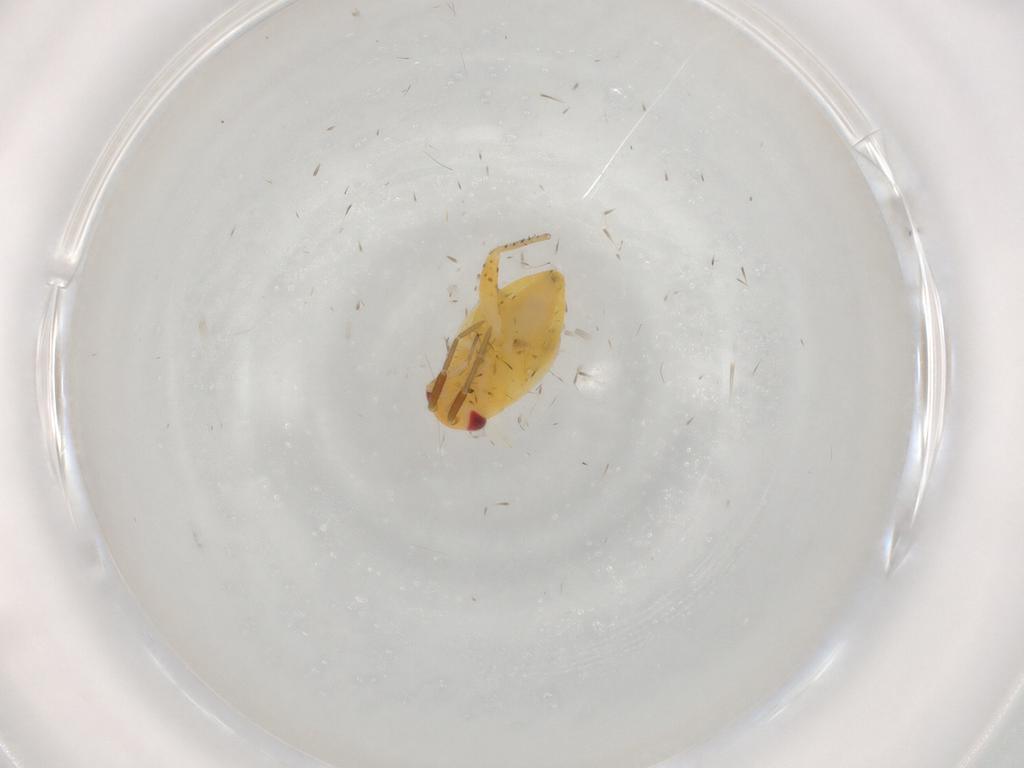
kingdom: Animalia
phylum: Arthropoda
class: Insecta
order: Hemiptera
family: Miridae
